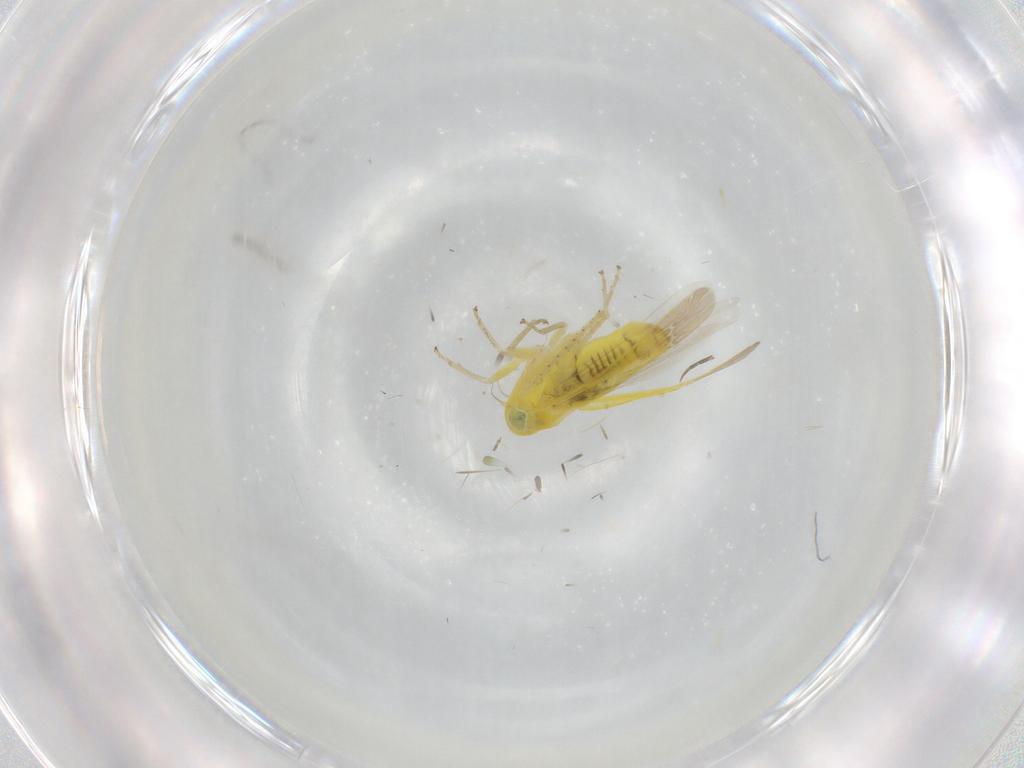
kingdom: Animalia
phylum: Arthropoda
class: Insecta
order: Hemiptera
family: Cicadellidae
